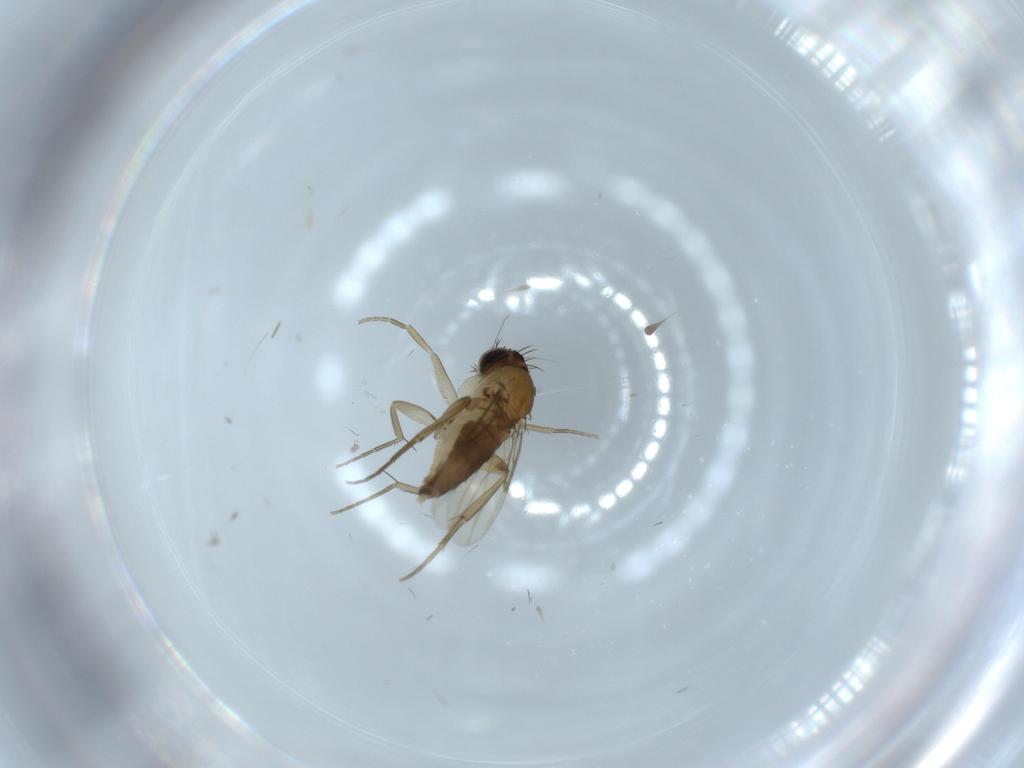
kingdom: Animalia
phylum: Arthropoda
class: Insecta
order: Diptera
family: Phoridae
